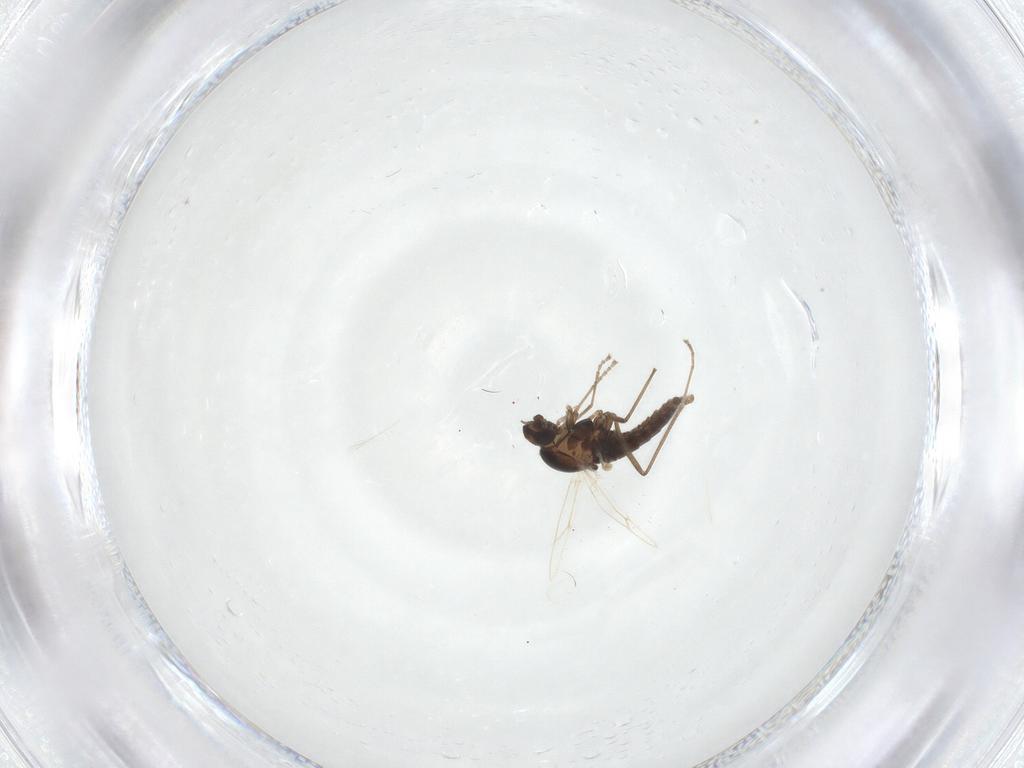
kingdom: Animalia
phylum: Arthropoda
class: Insecta
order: Diptera
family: Cecidomyiidae
